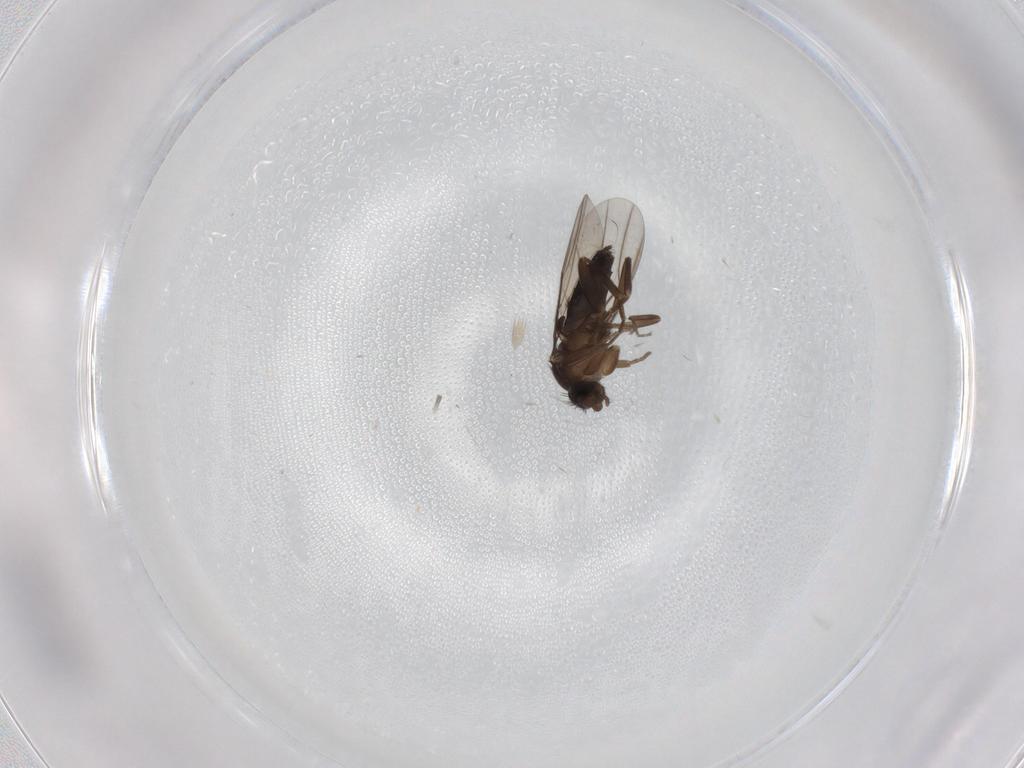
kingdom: Animalia
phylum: Arthropoda
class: Insecta
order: Diptera
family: Phoridae
